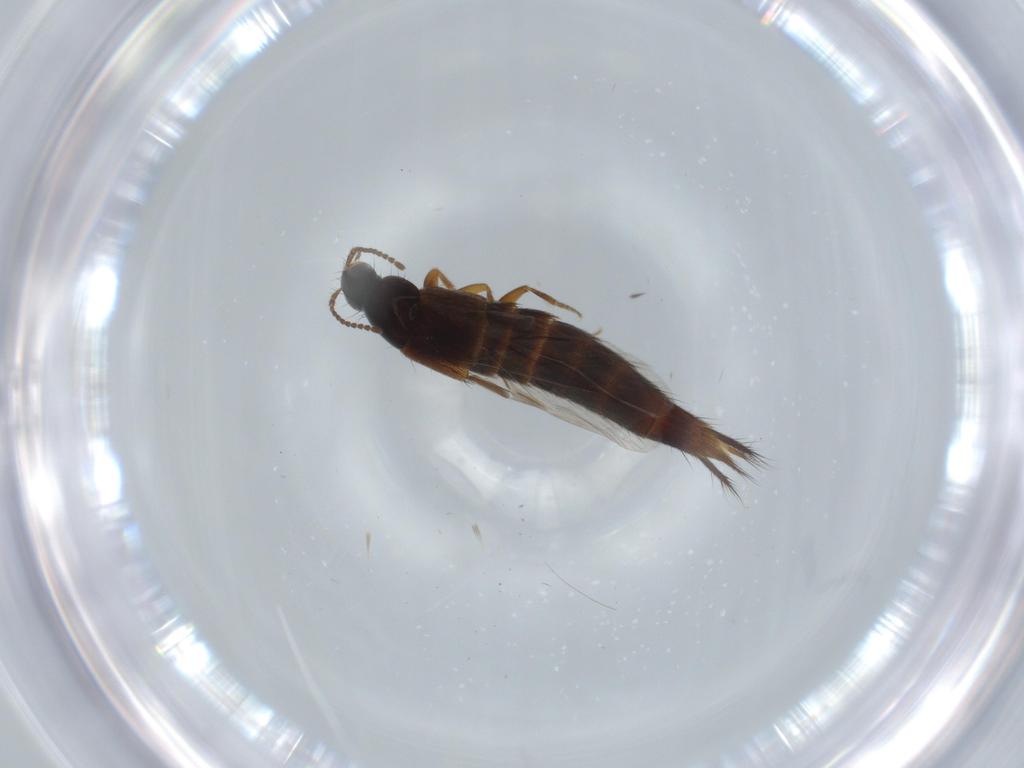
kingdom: Animalia
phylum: Arthropoda
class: Insecta
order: Coleoptera
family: Staphylinidae
